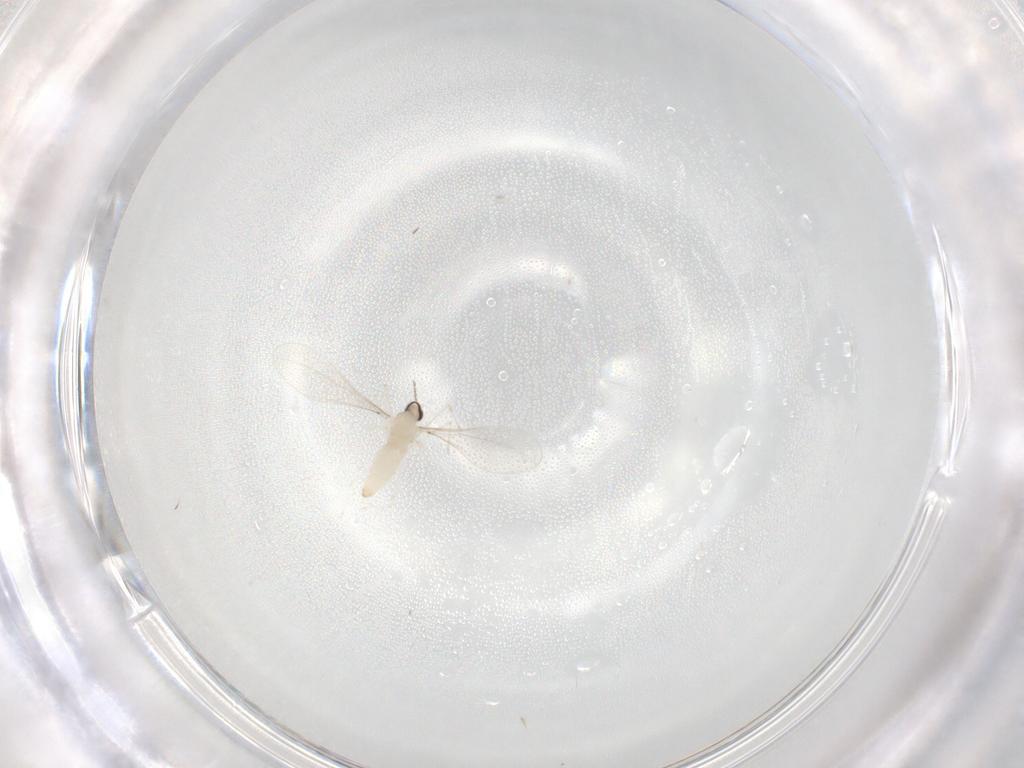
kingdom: Animalia
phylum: Arthropoda
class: Insecta
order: Diptera
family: Cecidomyiidae
